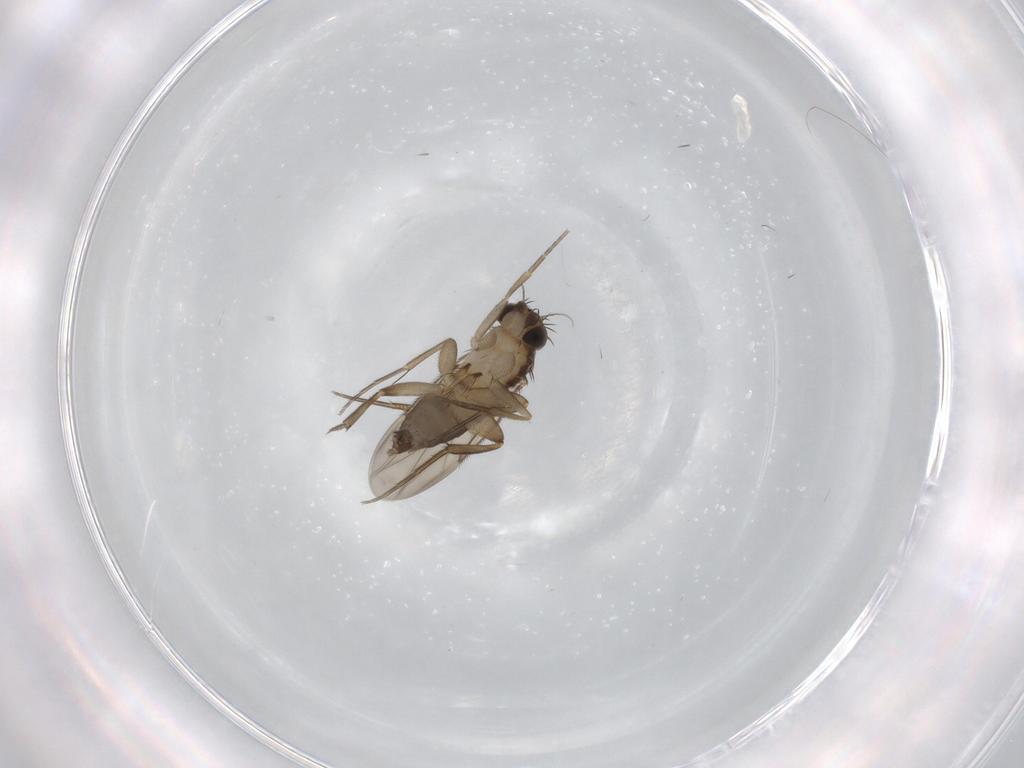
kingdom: Animalia
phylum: Arthropoda
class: Insecta
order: Diptera
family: Phoridae
